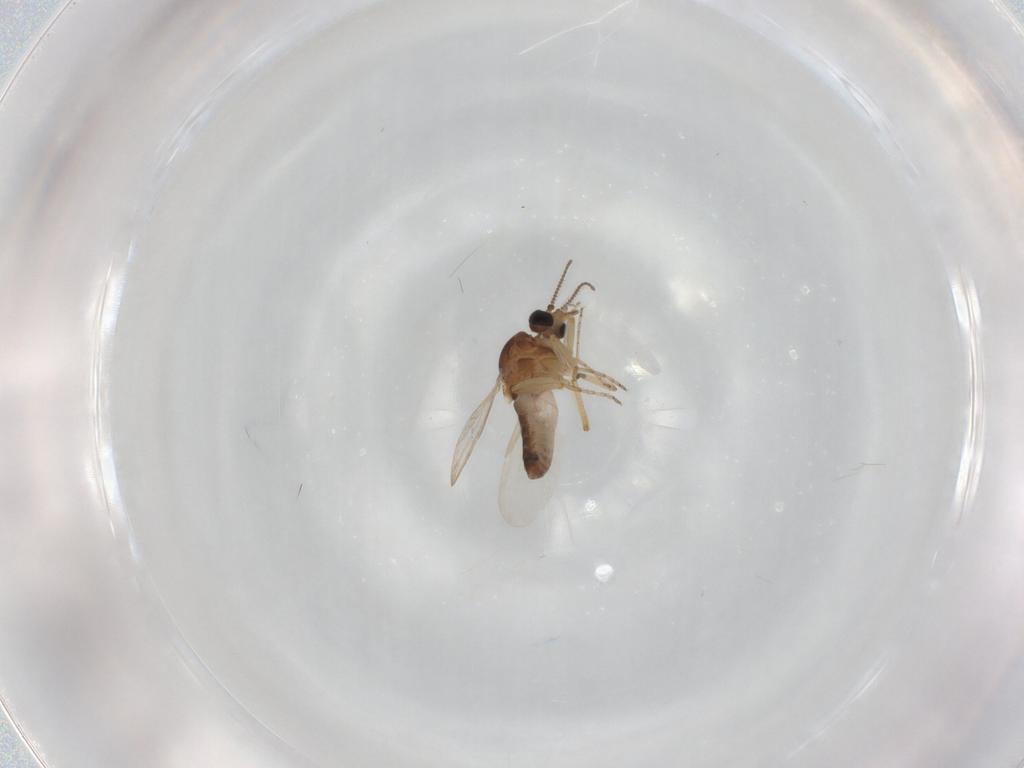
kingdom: Animalia
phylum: Arthropoda
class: Insecta
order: Diptera
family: Ceratopogonidae
